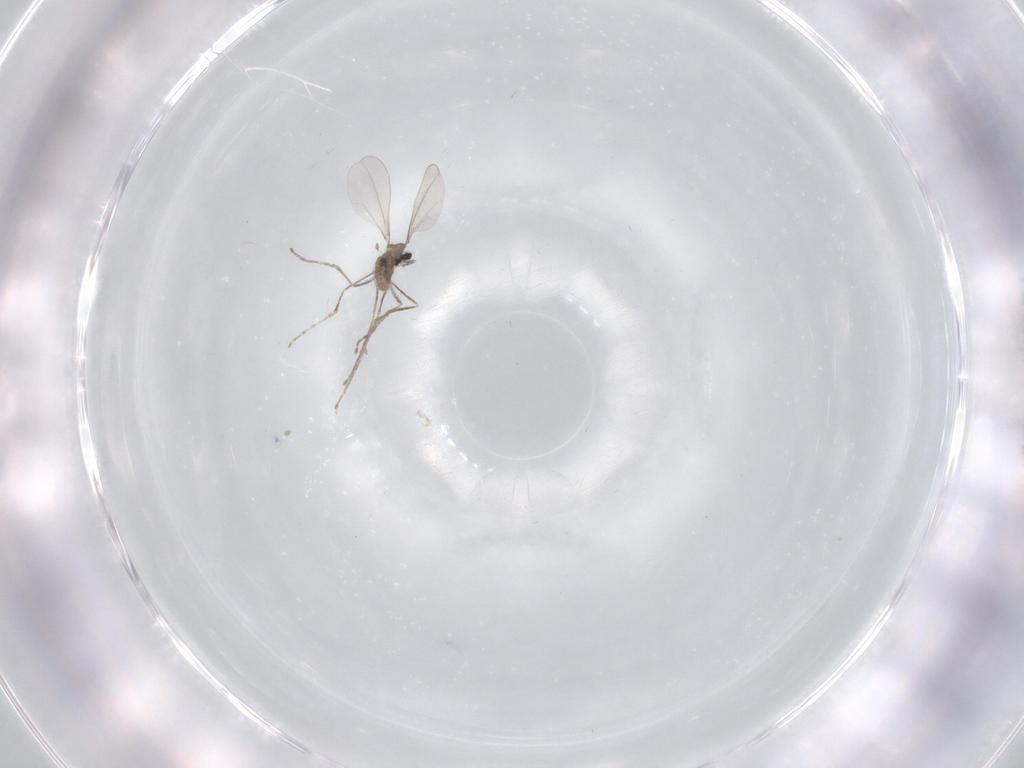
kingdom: Animalia
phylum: Arthropoda
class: Insecta
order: Diptera
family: Cecidomyiidae
